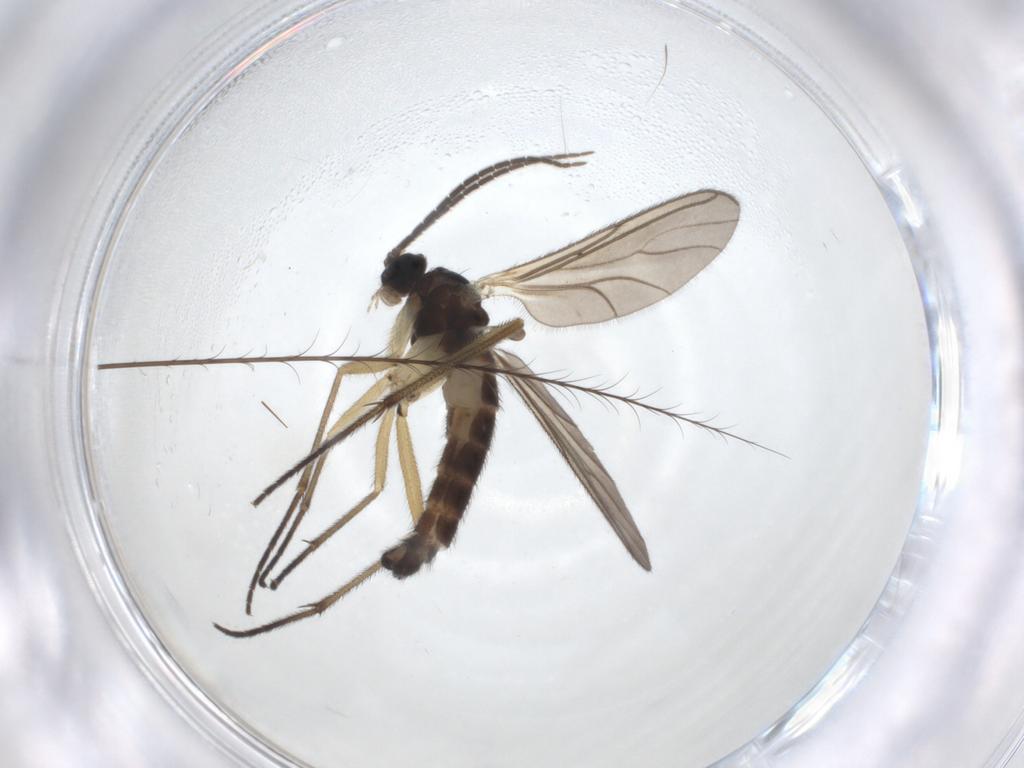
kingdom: Animalia
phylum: Arthropoda
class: Insecta
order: Diptera
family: Sciaridae
